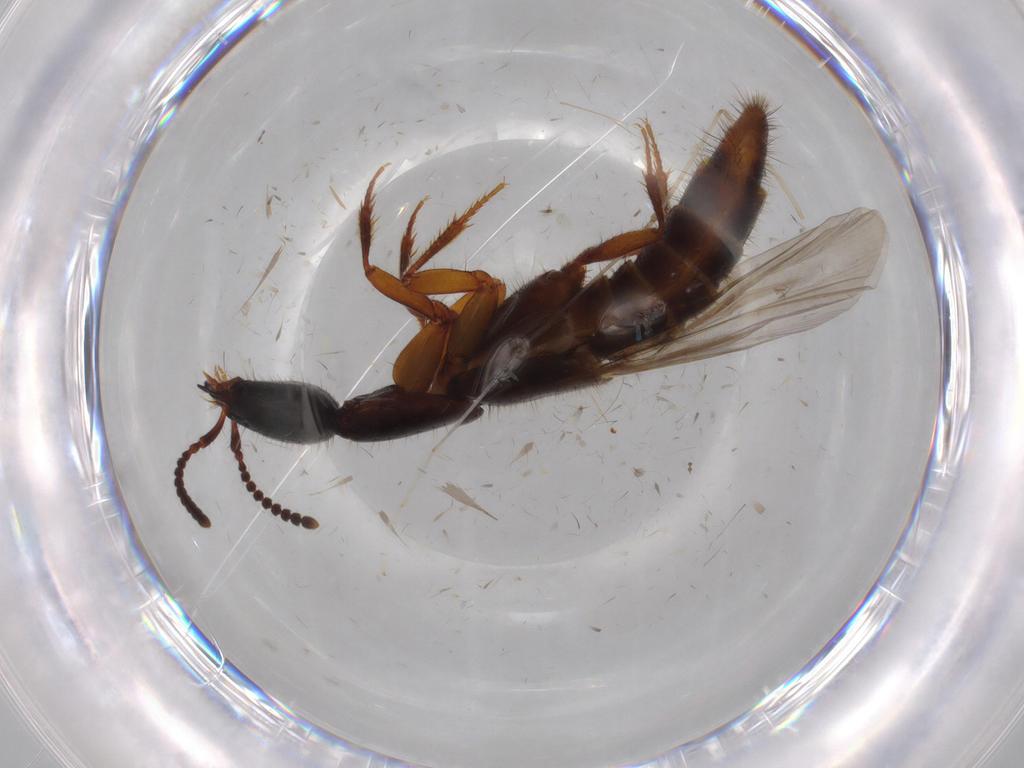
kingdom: Animalia
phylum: Arthropoda
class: Insecta
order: Coleoptera
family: Staphylinidae
